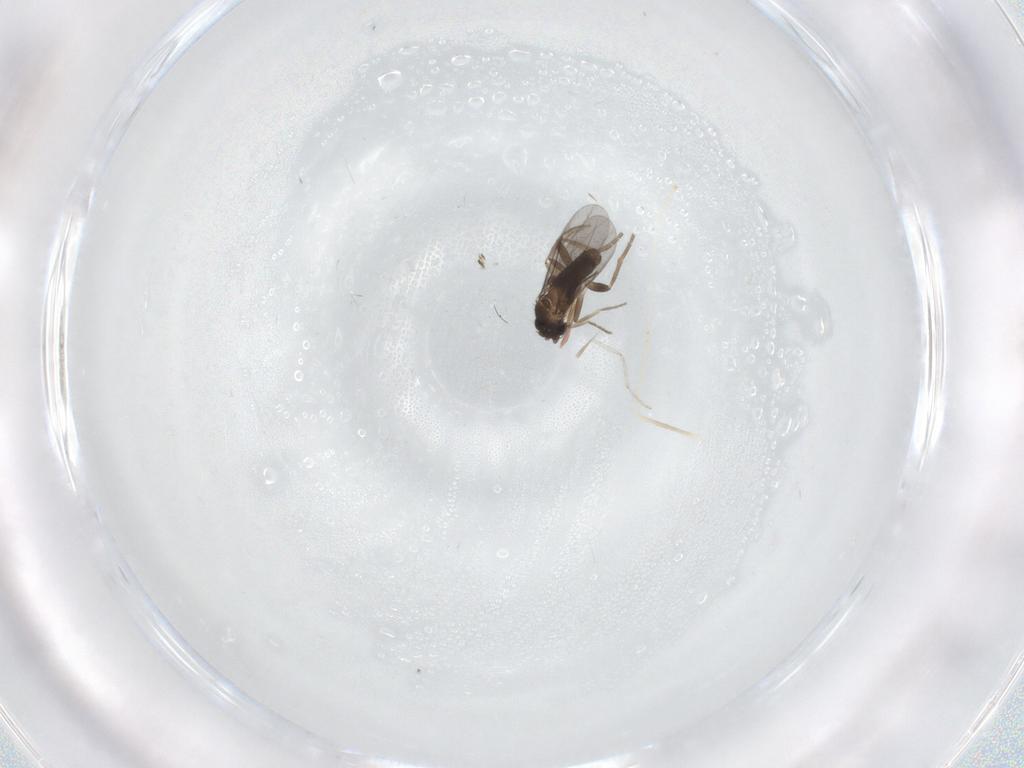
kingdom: Animalia
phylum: Arthropoda
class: Insecta
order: Diptera
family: Cecidomyiidae
